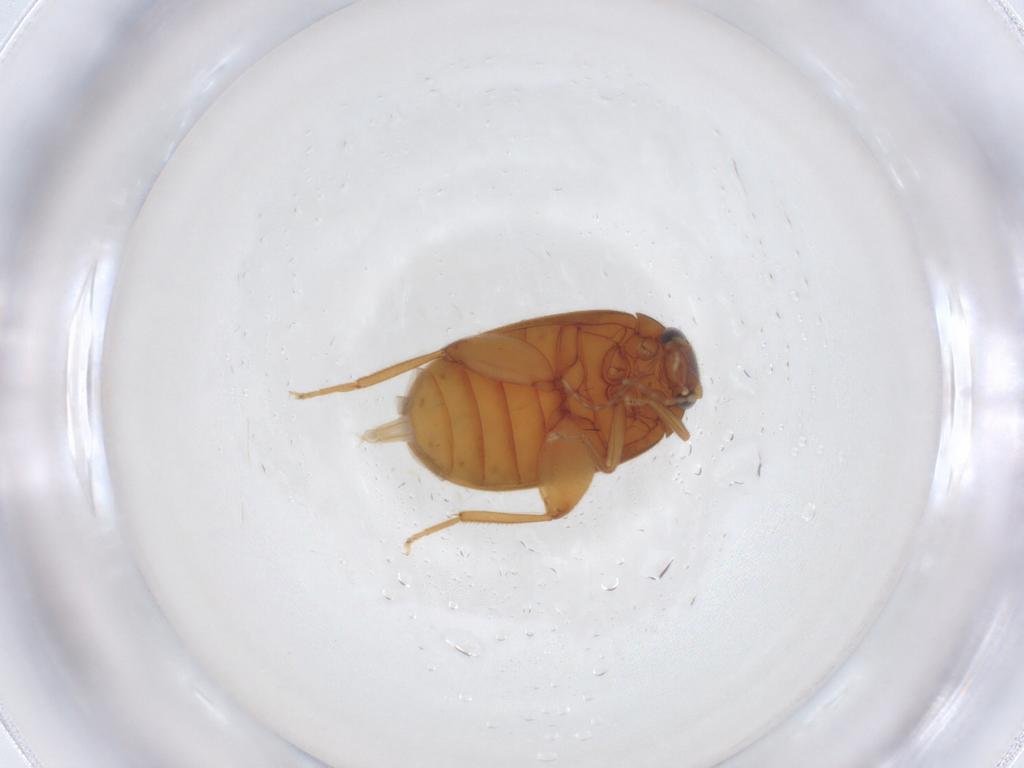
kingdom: Animalia
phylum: Arthropoda
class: Insecta
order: Coleoptera
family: Scirtidae
